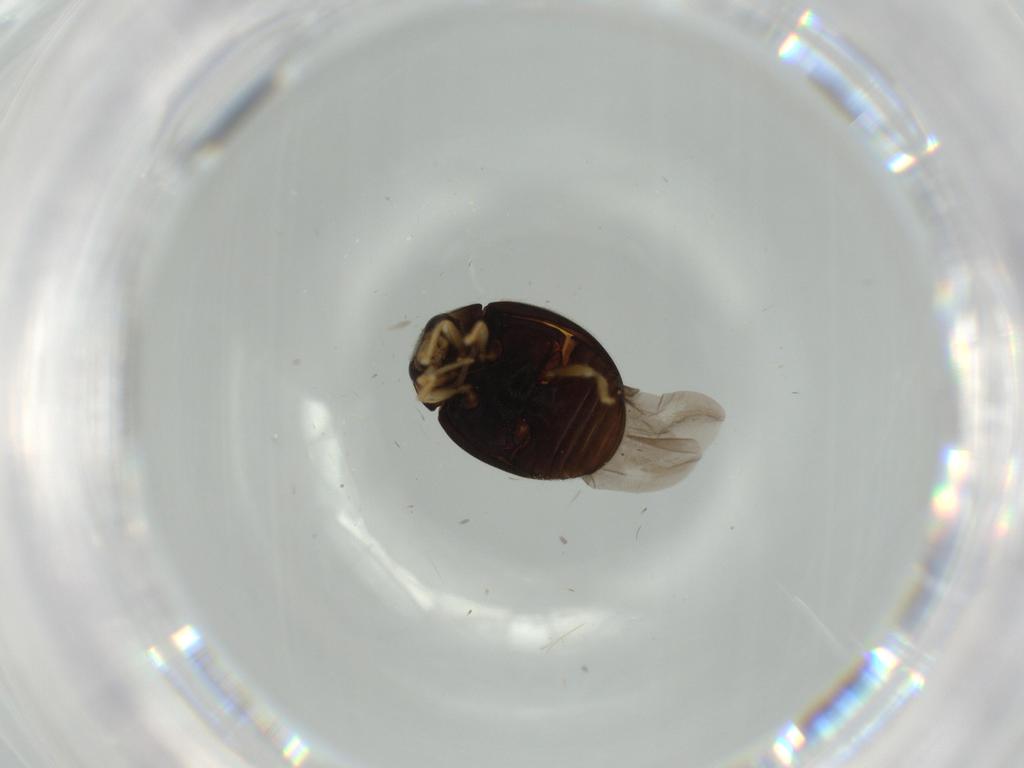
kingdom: Animalia
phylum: Arthropoda
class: Insecta
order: Coleoptera
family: Coccinellidae
